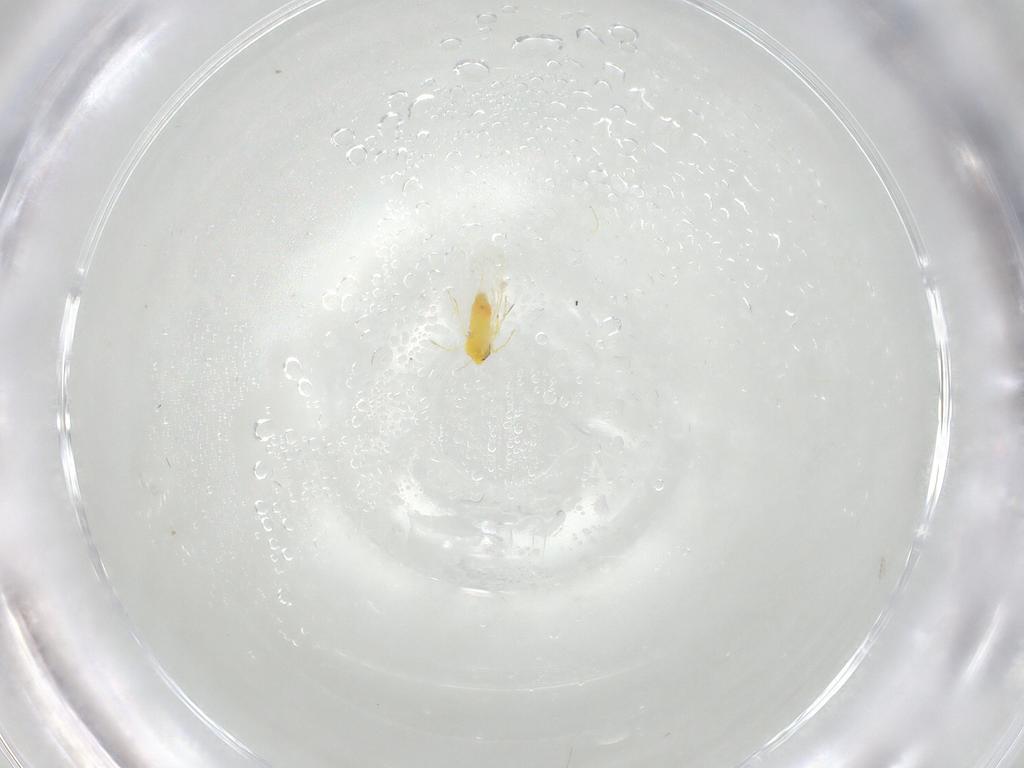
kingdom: Animalia
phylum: Arthropoda
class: Insecta
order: Hemiptera
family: Aleyrodidae
